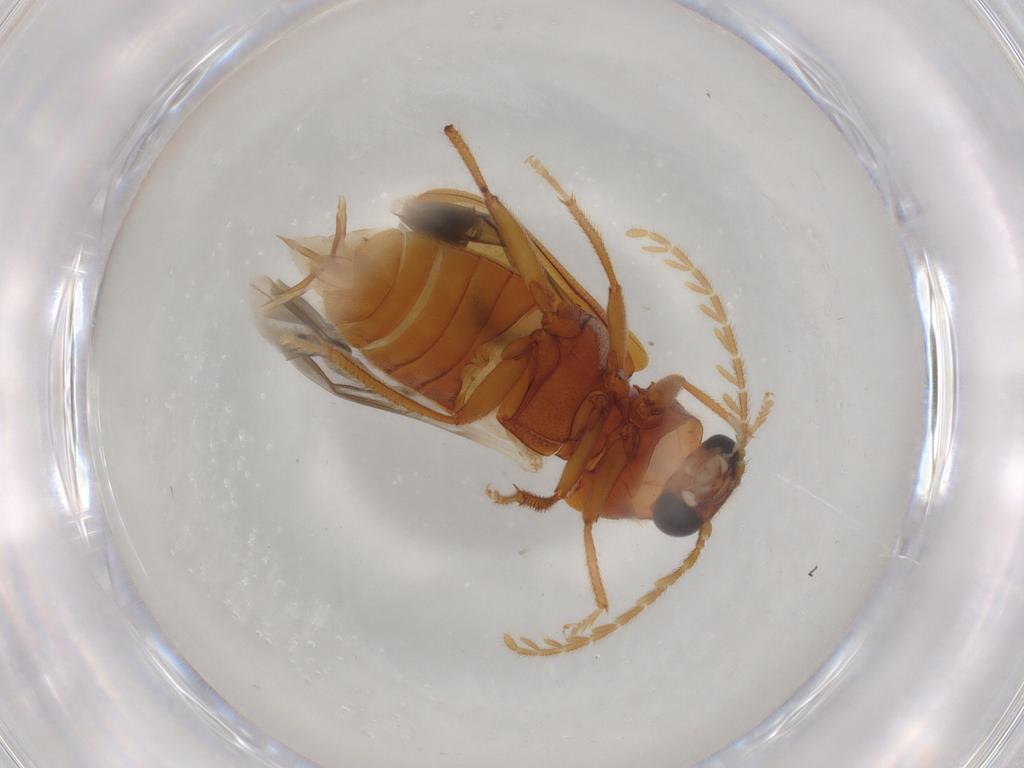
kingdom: Animalia
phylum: Arthropoda
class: Insecta
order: Coleoptera
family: Ptilodactylidae
